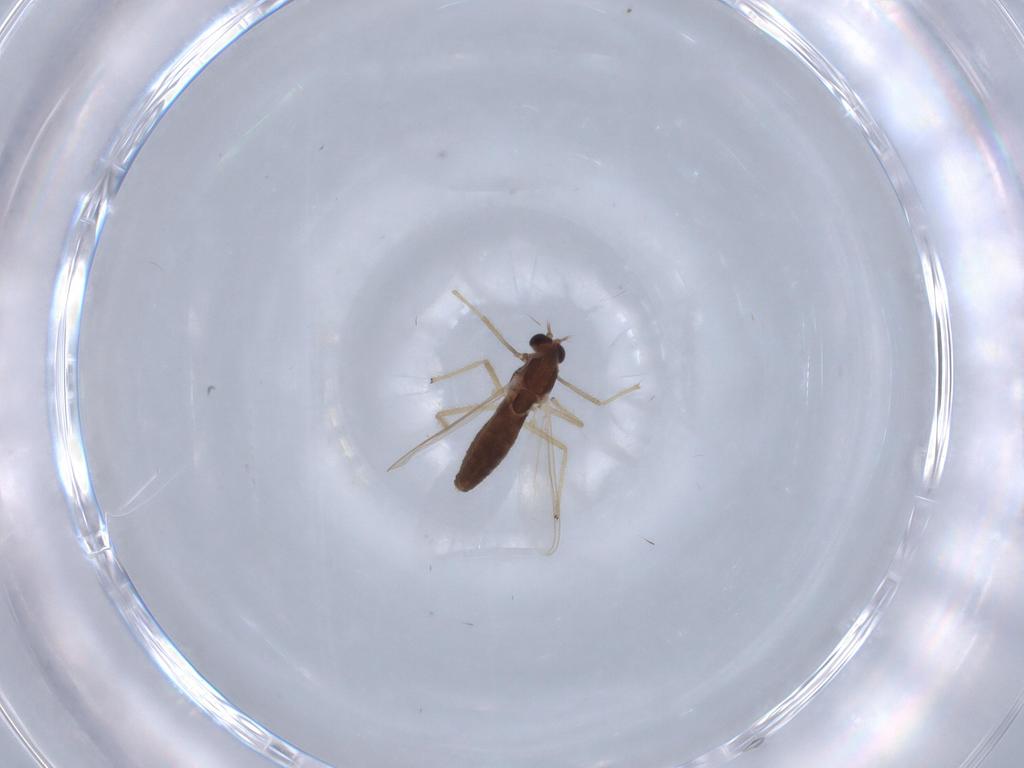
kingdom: Animalia
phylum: Arthropoda
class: Insecta
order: Diptera
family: Chironomidae
